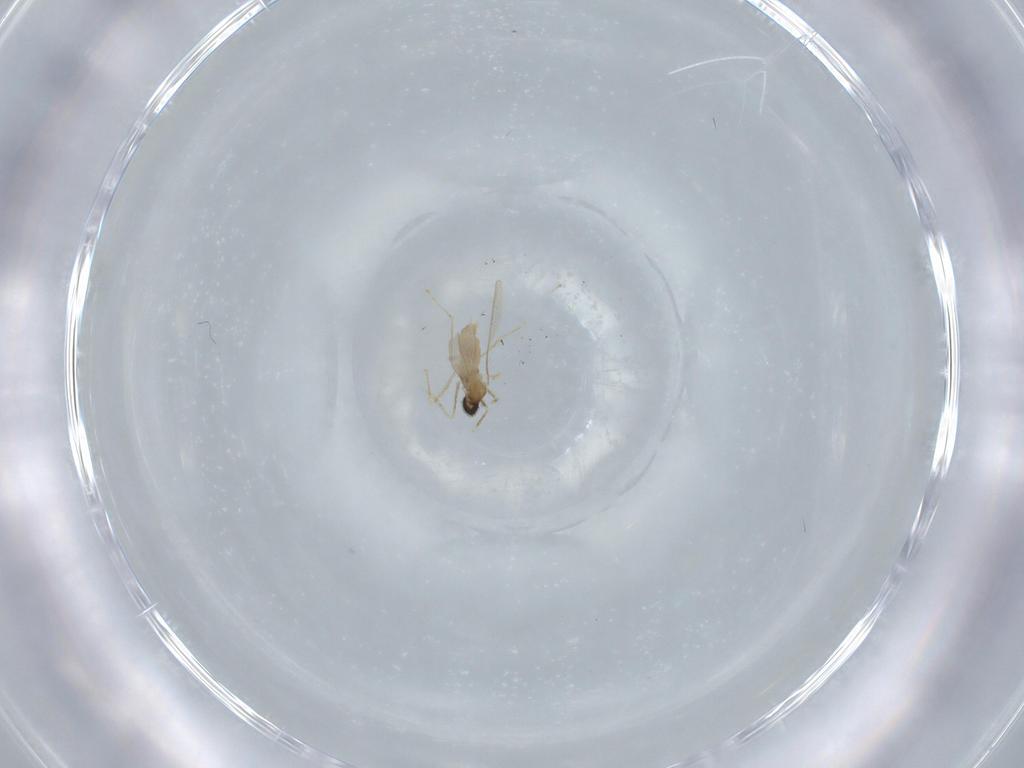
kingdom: Animalia
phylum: Arthropoda
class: Insecta
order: Diptera
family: Cecidomyiidae
